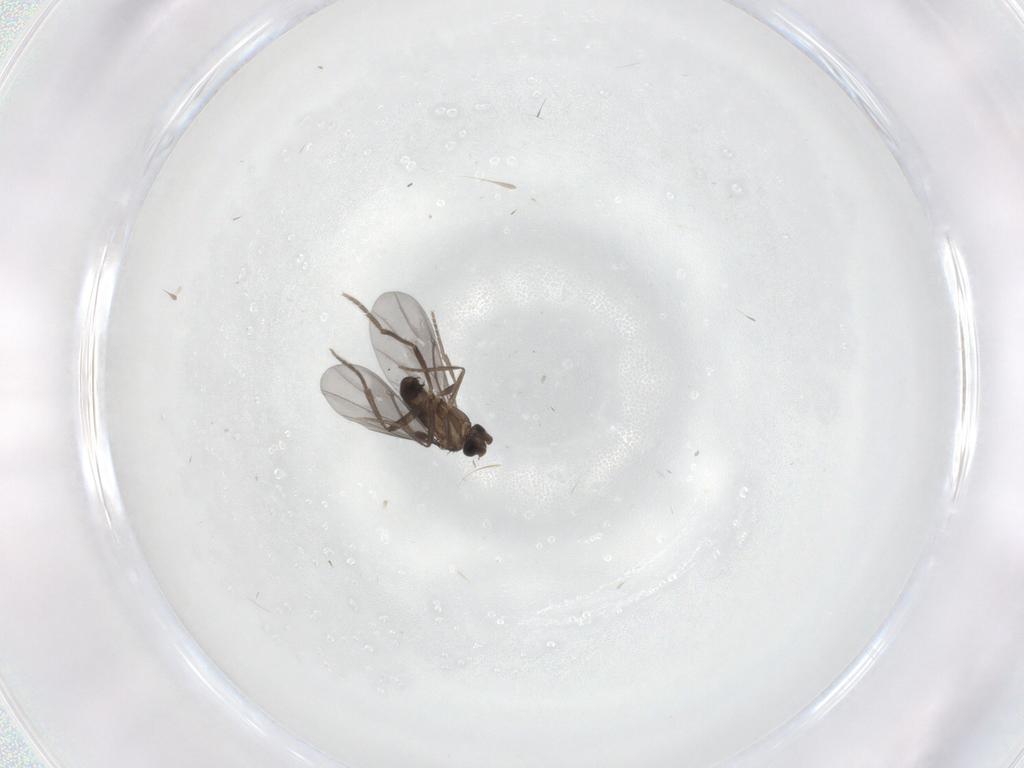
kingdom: Animalia
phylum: Arthropoda
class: Insecta
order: Diptera
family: Phoridae
